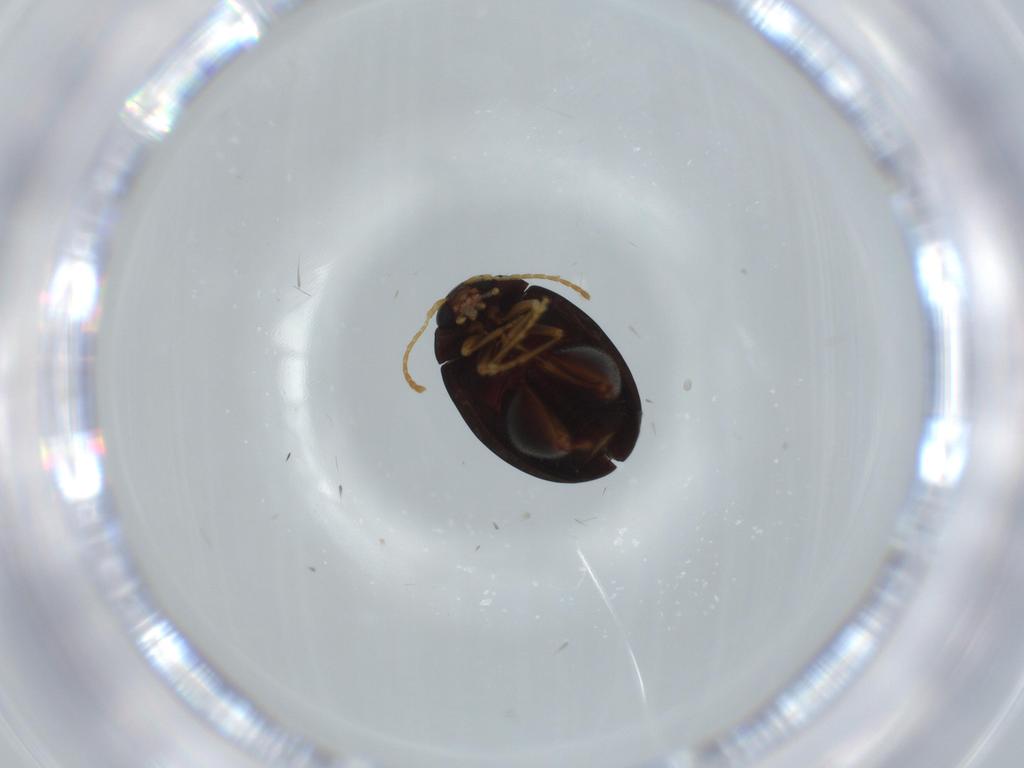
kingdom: Animalia
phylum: Arthropoda
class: Insecta
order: Coleoptera
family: Chrysomelidae
